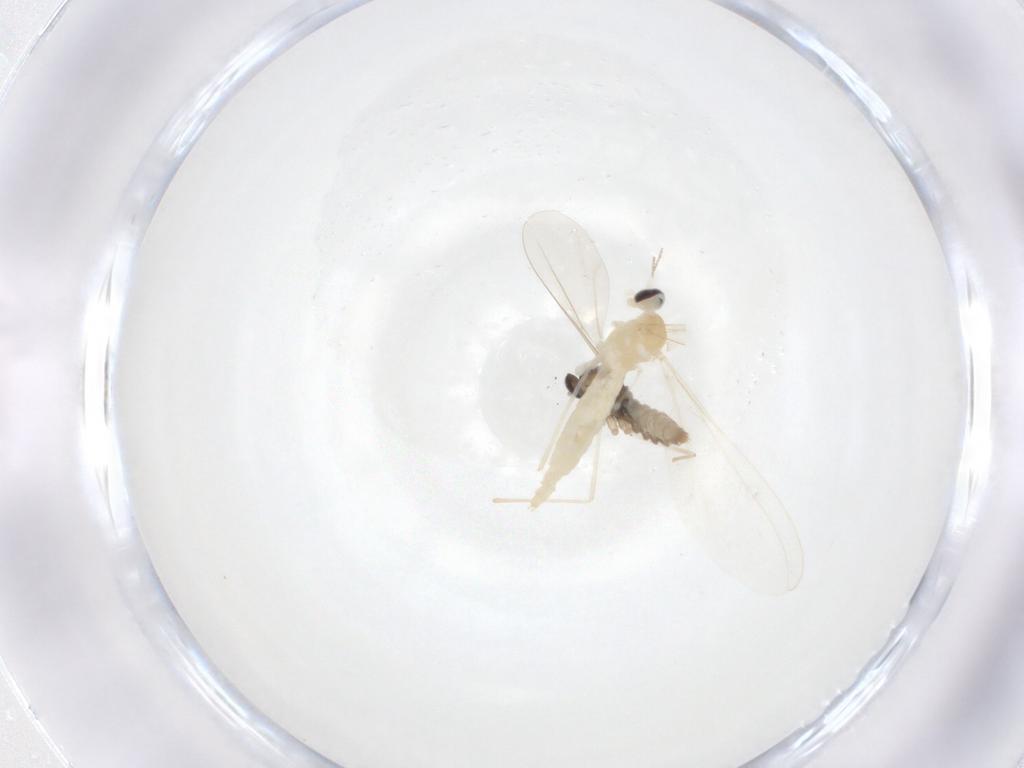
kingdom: Animalia
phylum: Arthropoda
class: Insecta
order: Diptera
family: Cecidomyiidae
